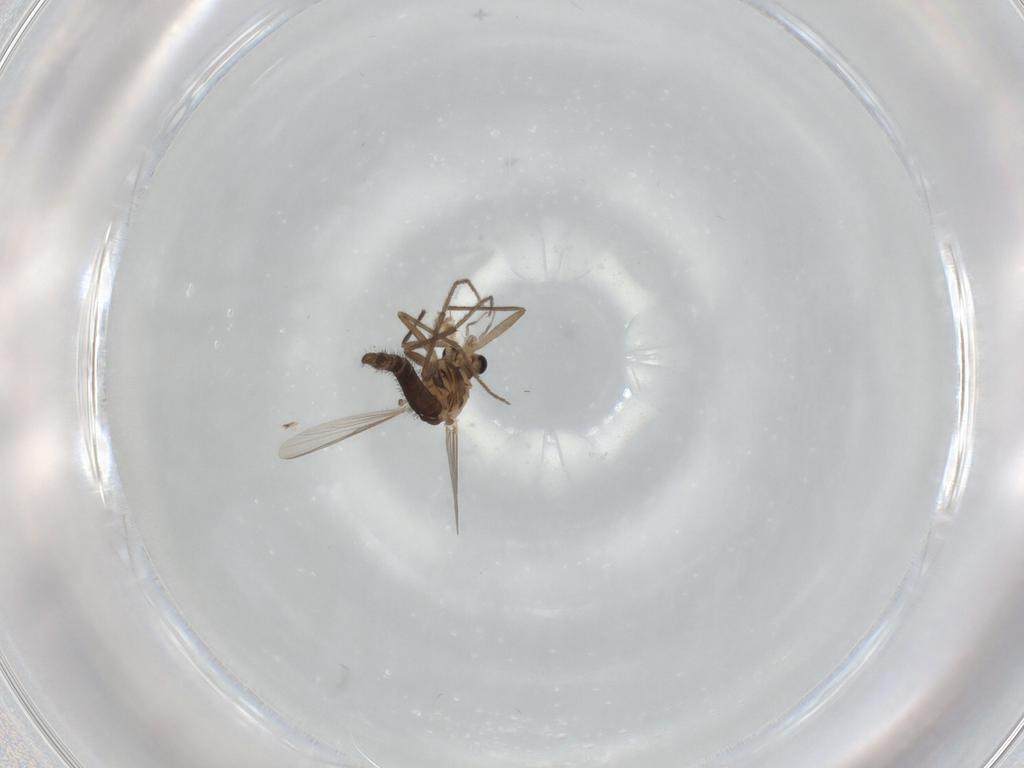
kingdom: Animalia
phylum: Arthropoda
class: Insecta
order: Diptera
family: Chironomidae
